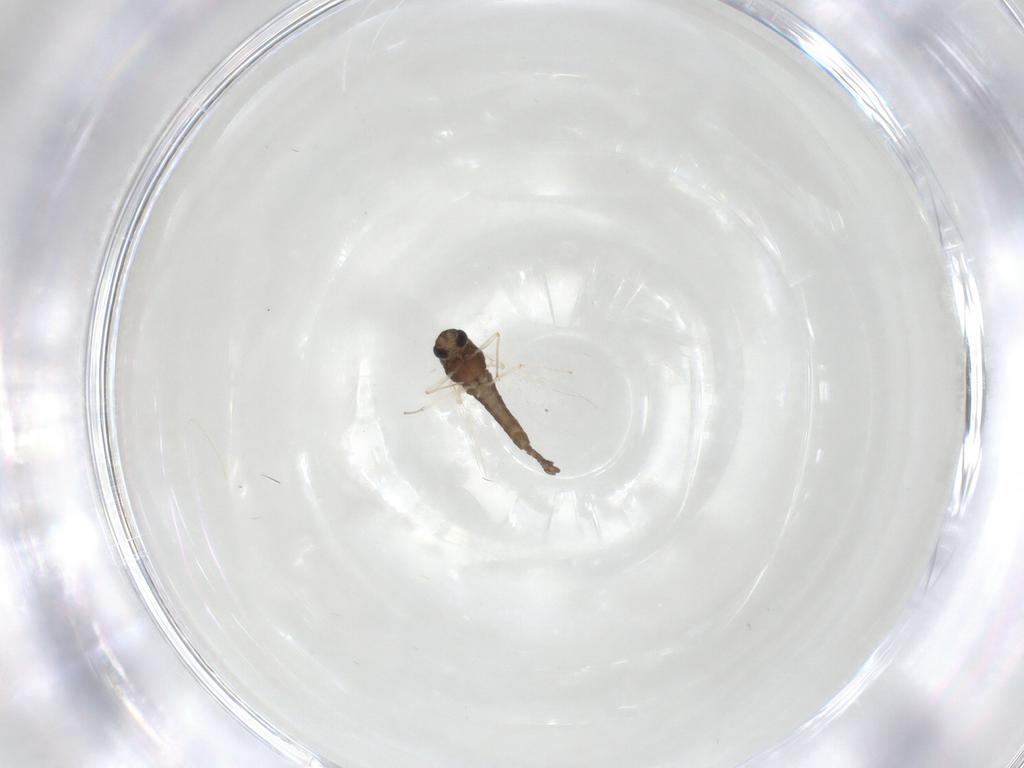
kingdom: Animalia
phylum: Arthropoda
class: Insecta
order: Diptera
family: Chironomidae
